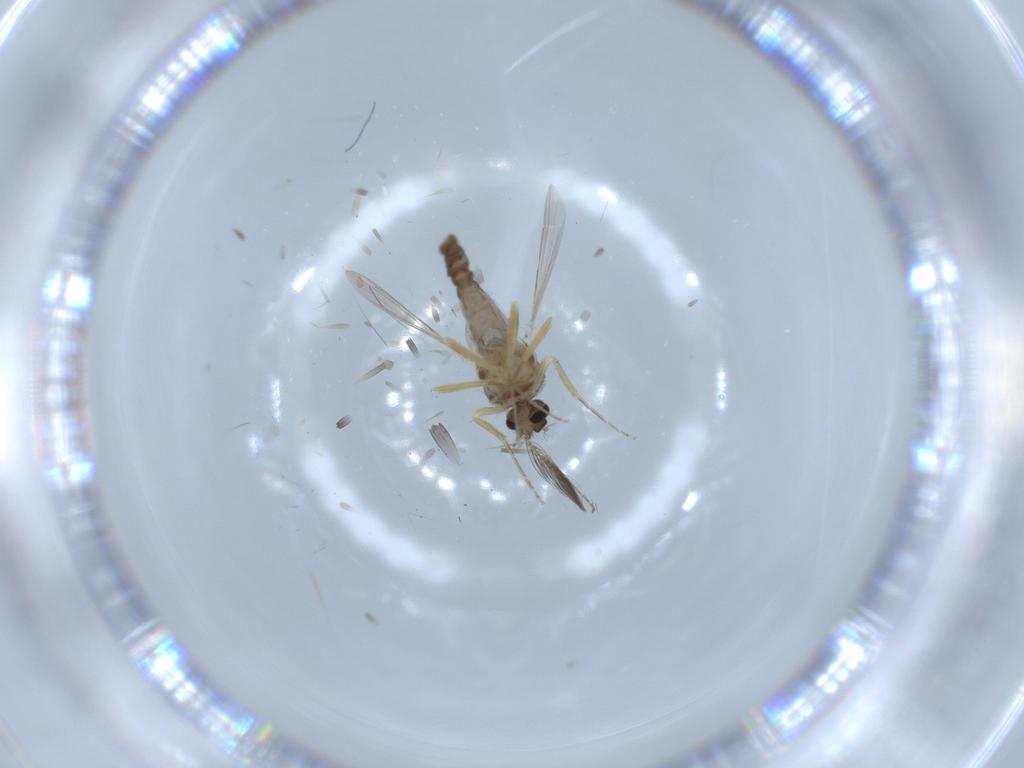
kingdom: Animalia
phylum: Arthropoda
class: Insecta
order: Diptera
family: Ceratopogonidae
